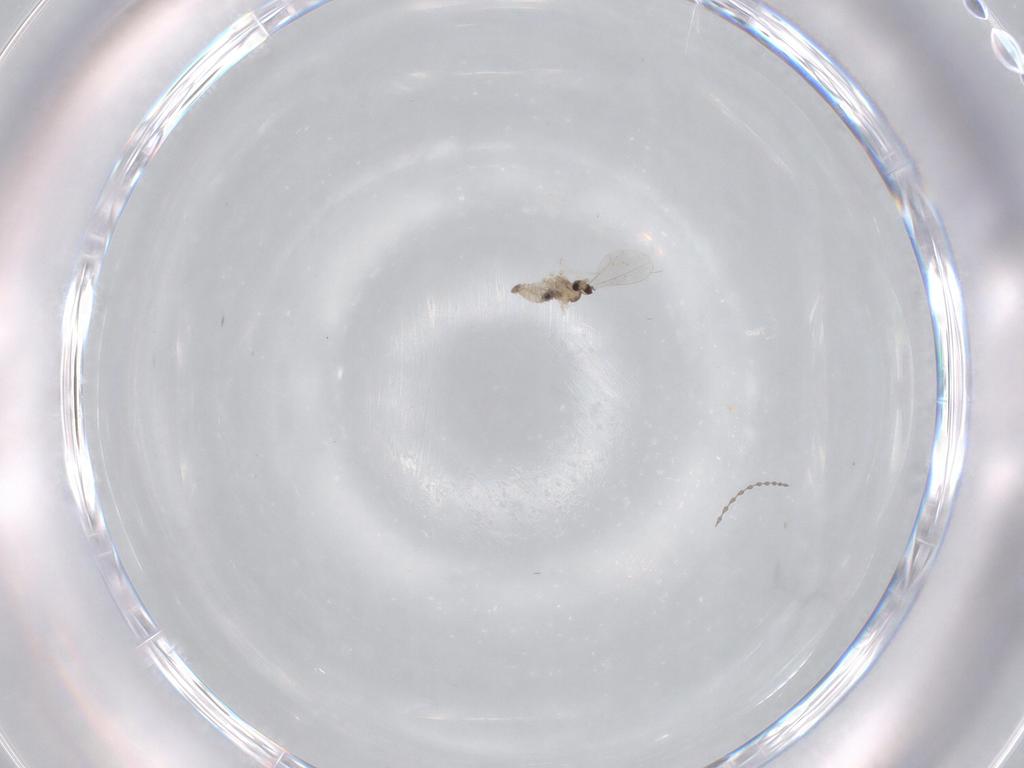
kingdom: Animalia
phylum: Arthropoda
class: Insecta
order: Diptera
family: Cecidomyiidae
